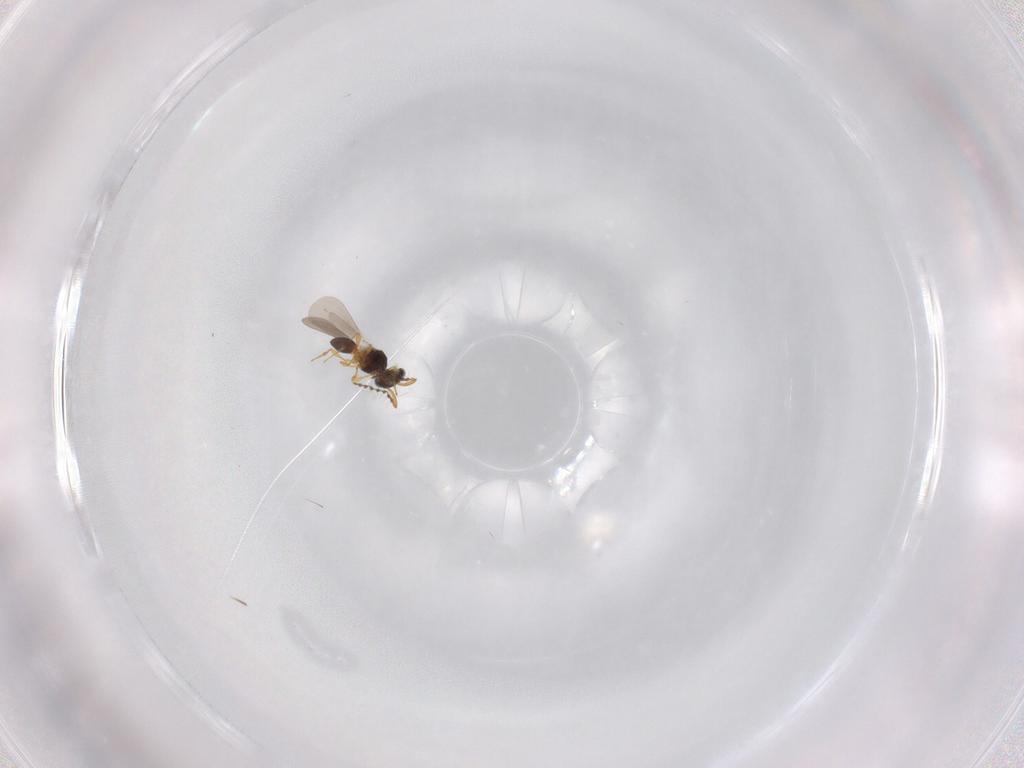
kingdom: Animalia
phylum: Arthropoda
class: Insecta
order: Hymenoptera
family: Platygastridae
